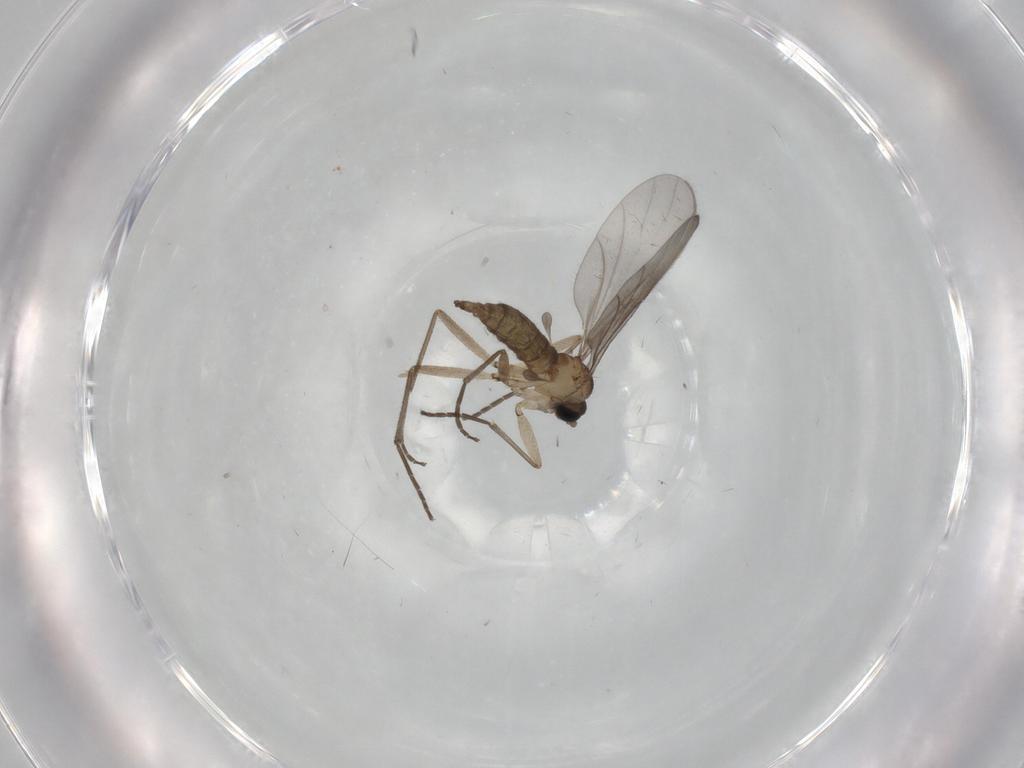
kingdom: Animalia
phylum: Arthropoda
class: Insecta
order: Diptera
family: Sciaridae
